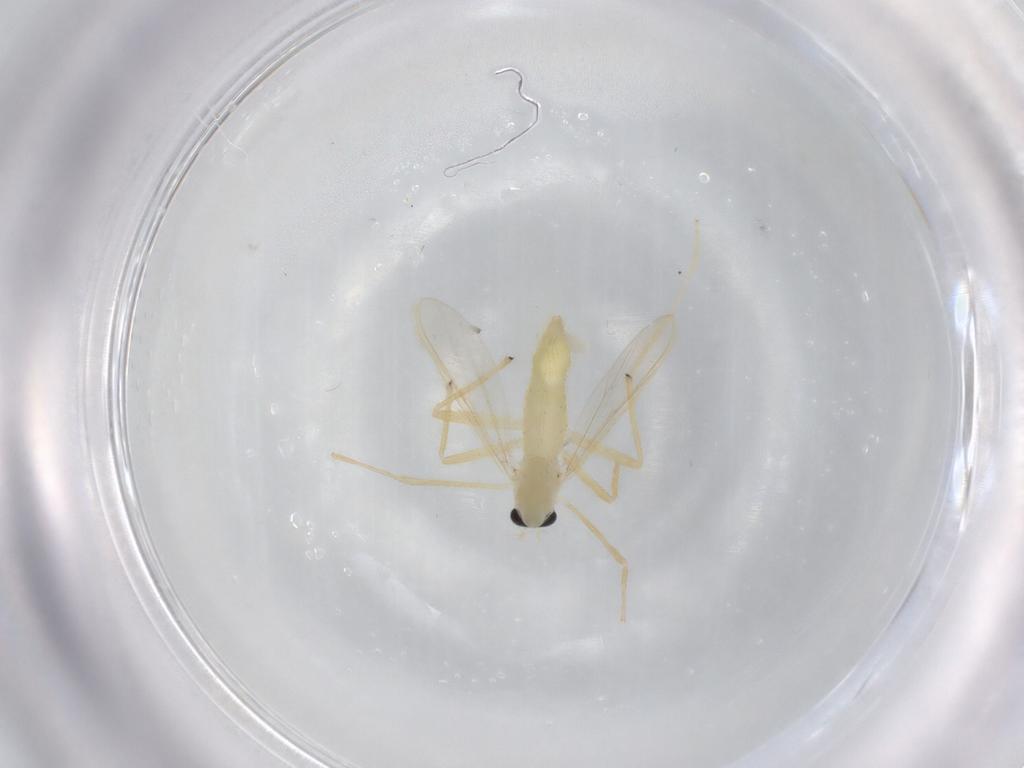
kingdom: Animalia
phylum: Arthropoda
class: Insecta
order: Diptera
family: Chironomidae
